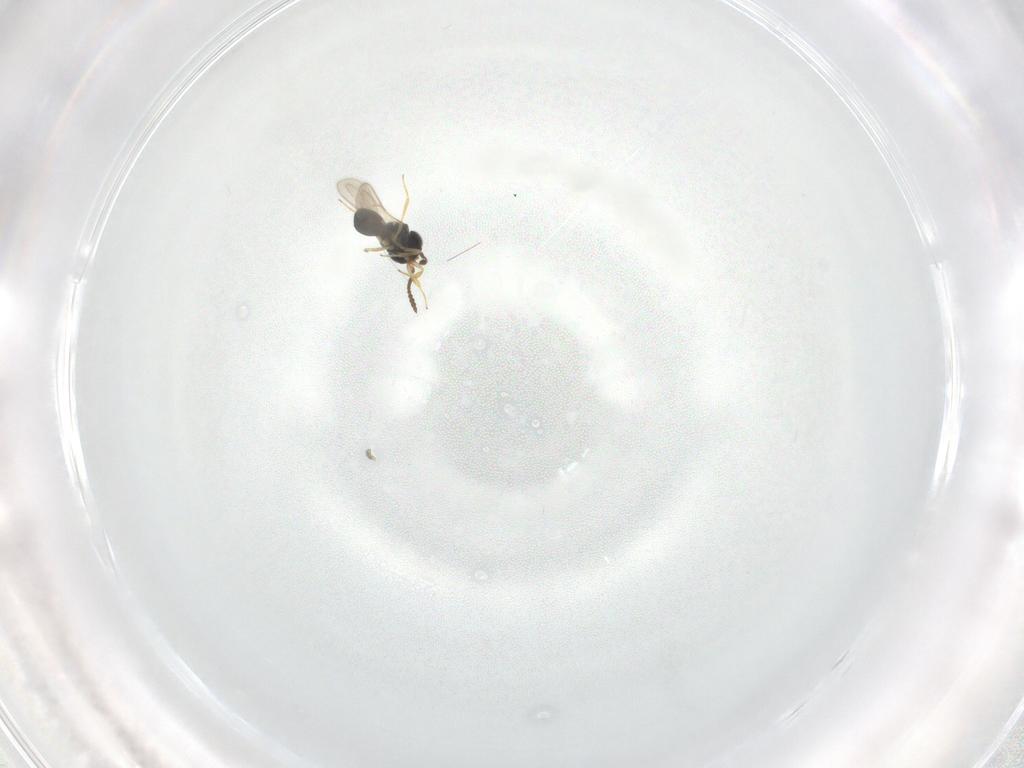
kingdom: Animalia
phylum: Arthropoda
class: Insecta
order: Hymenoptera
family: Scelionidae
